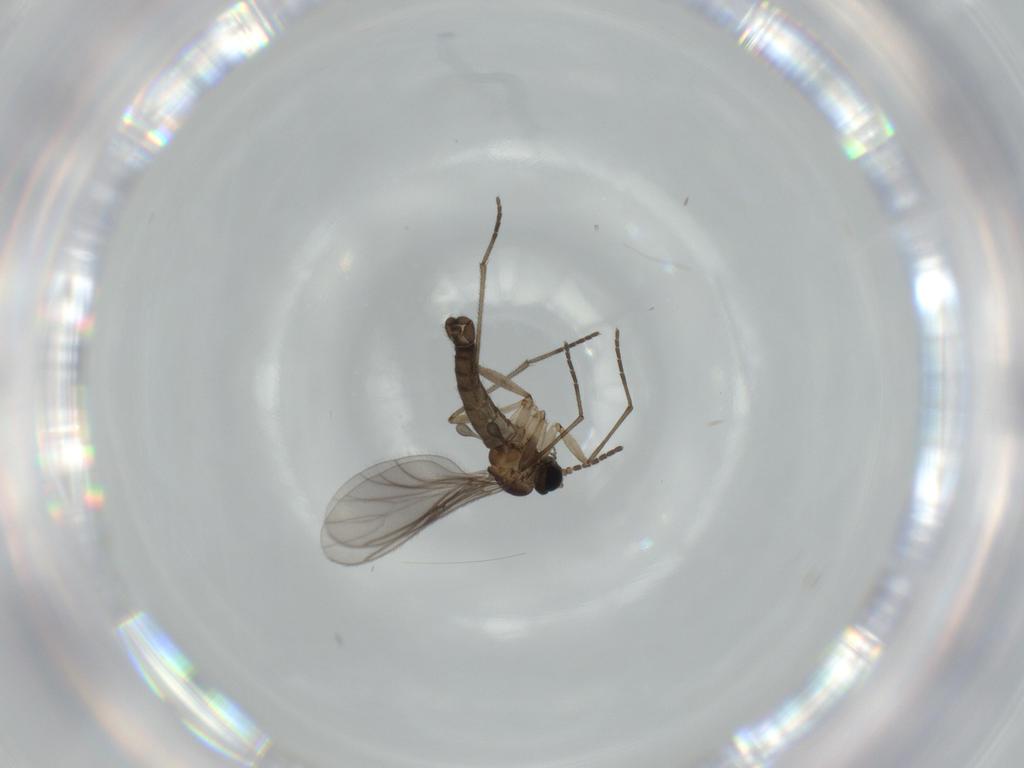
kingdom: Animalia
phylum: Arthropoda
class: Insecta
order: Diptera
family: Sciaridae
